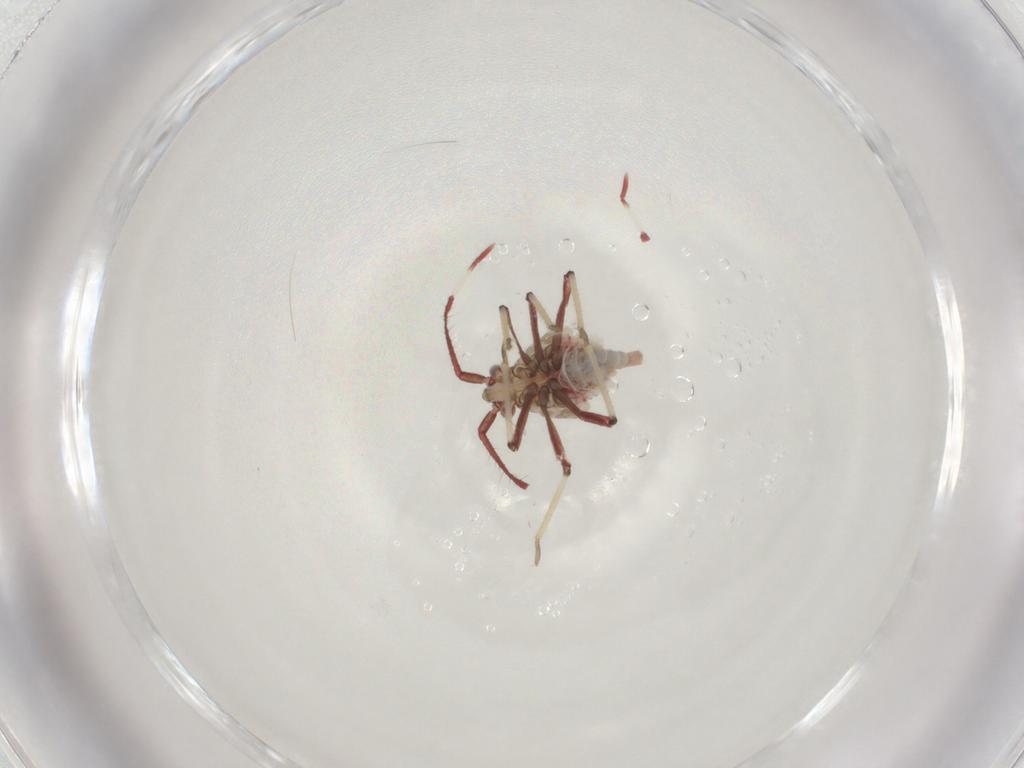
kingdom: Animalia
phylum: Arthropoda
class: Insecta
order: Hemiptera
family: Miridae
